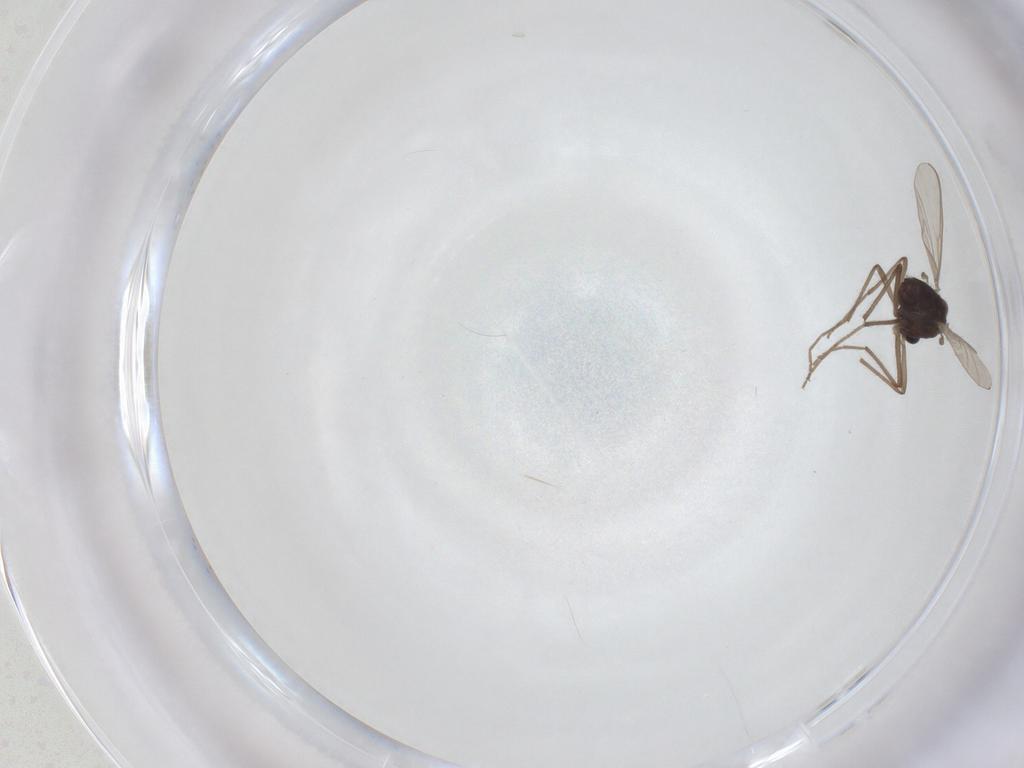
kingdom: Animalia
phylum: Arthropoda
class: Insecta
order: Diptera
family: Chironomidae
